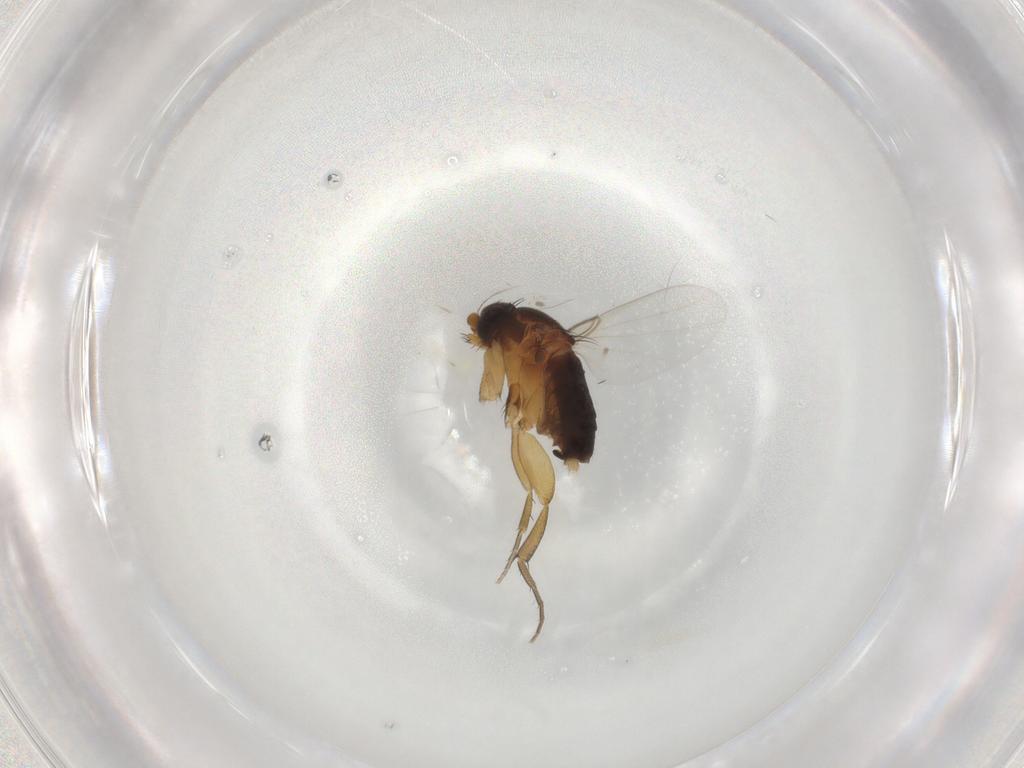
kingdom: Animalia
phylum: Arthropoda
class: Insecta
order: Diptera
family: Phoridae
